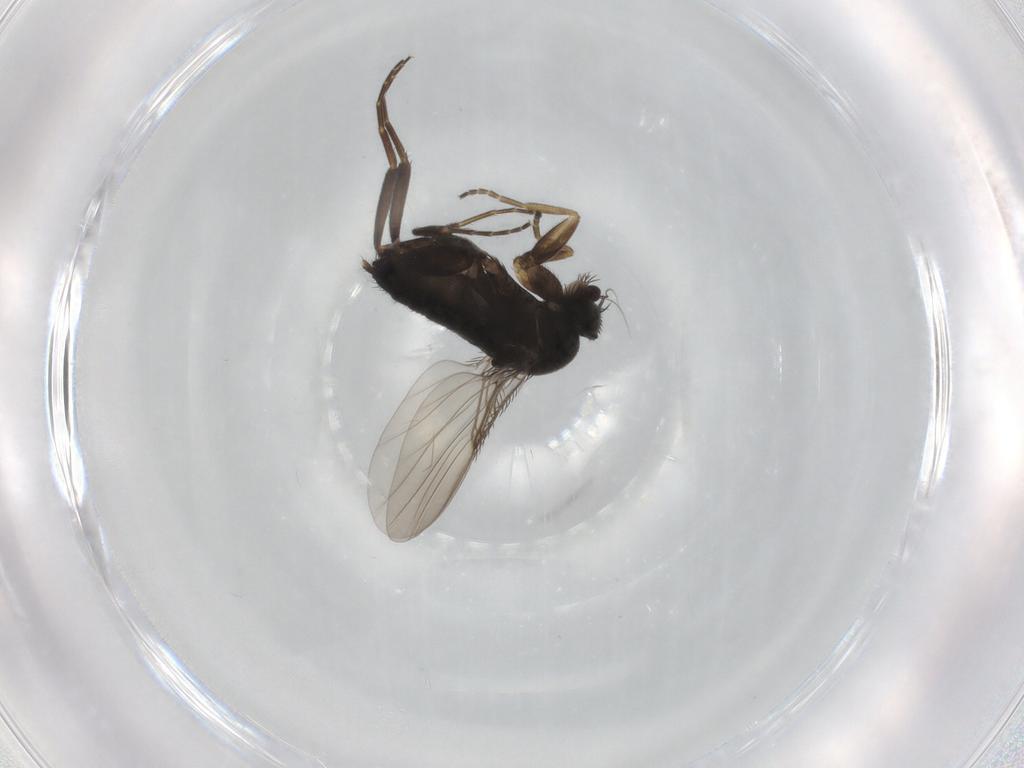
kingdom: Animalia
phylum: Arthropoda
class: Insecta
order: Diptera
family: Phoridae
